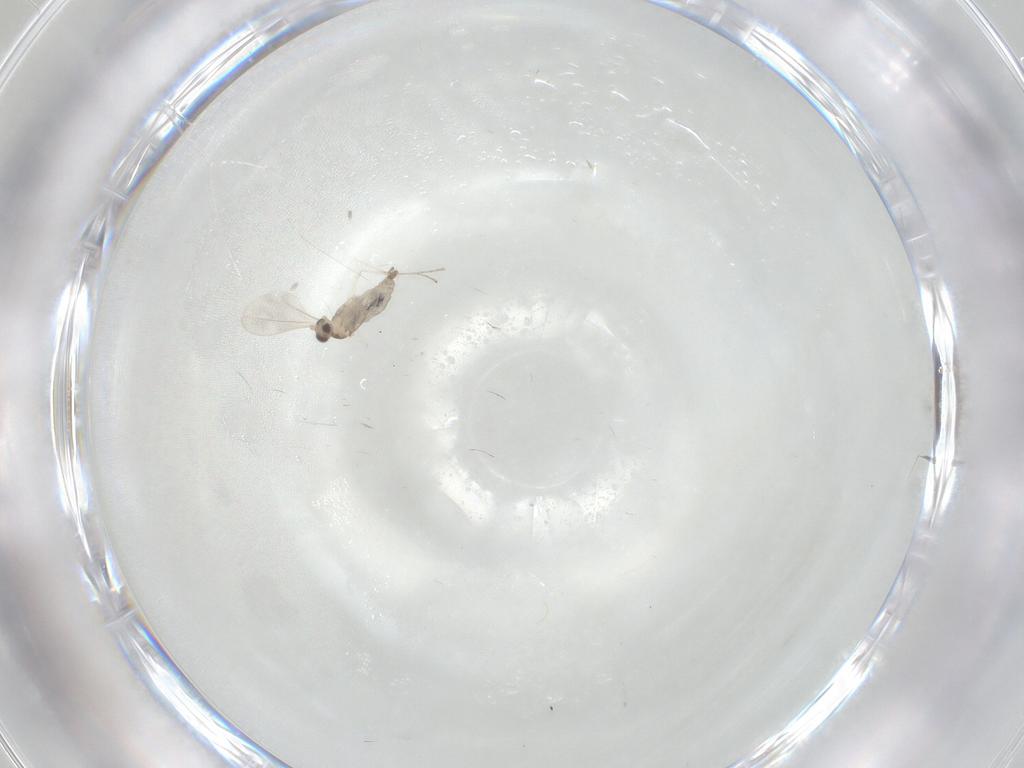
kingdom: Animalia
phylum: Arthropoda
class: Insecta
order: Diptera
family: Cecidomyiidae
